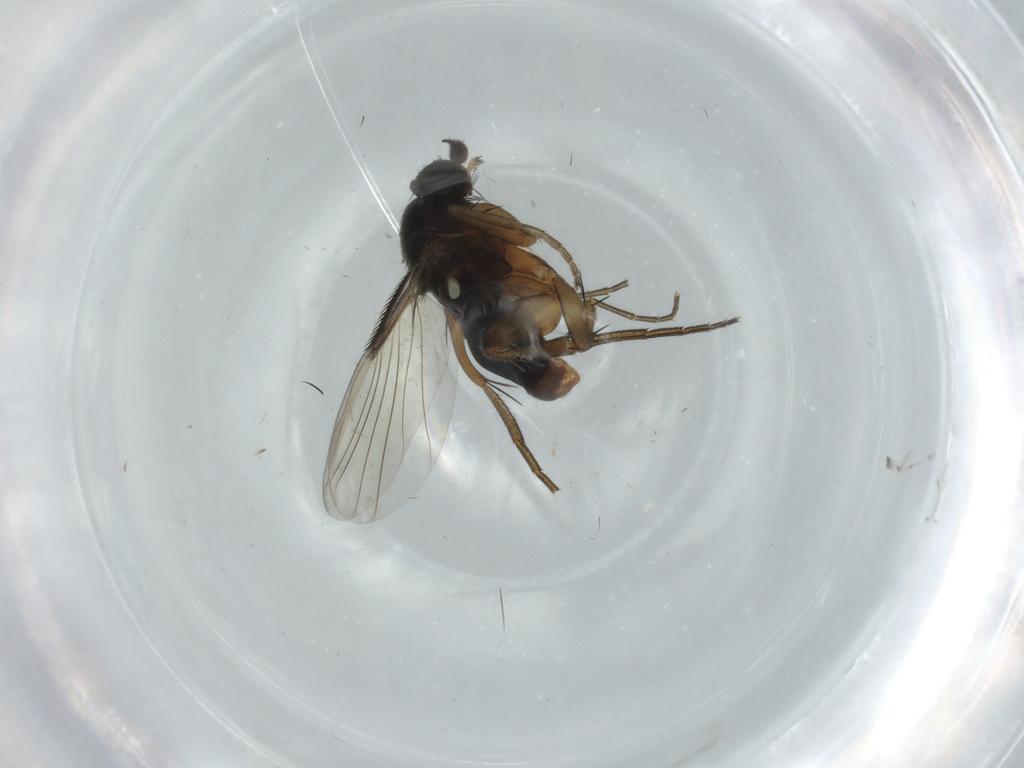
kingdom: Animalia
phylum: Arthropoda
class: Insecta
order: Diptera
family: Phoridae
